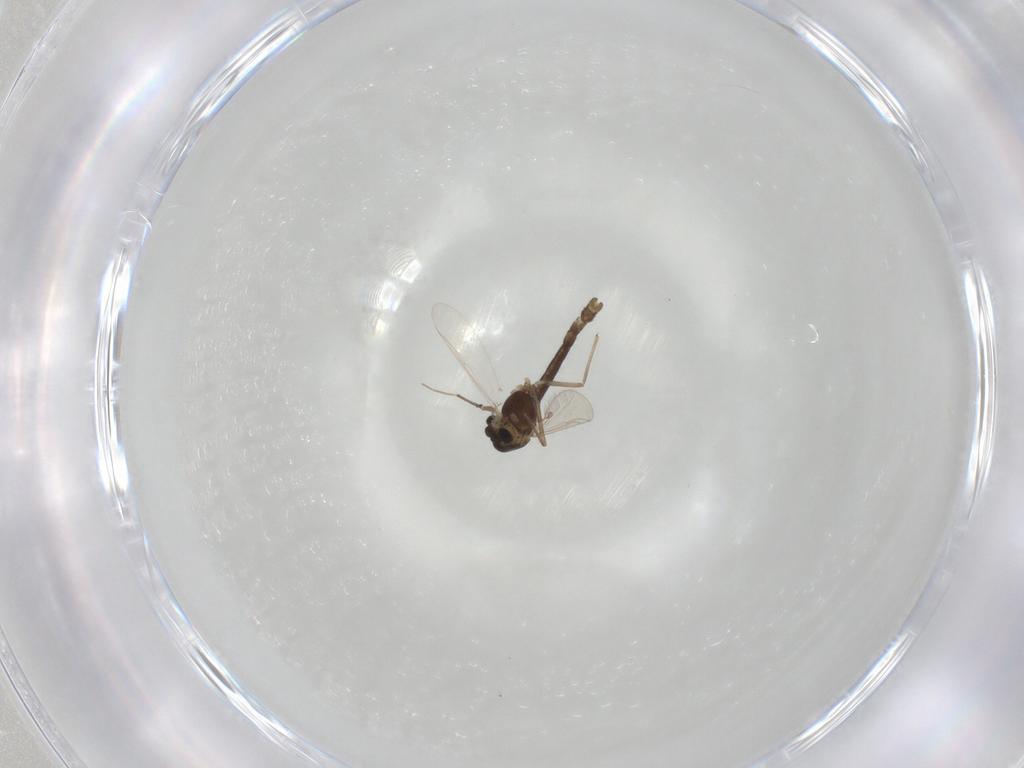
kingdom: Animalia
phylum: Arthropoda
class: Insecta
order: Diptera
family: Chironomidae
